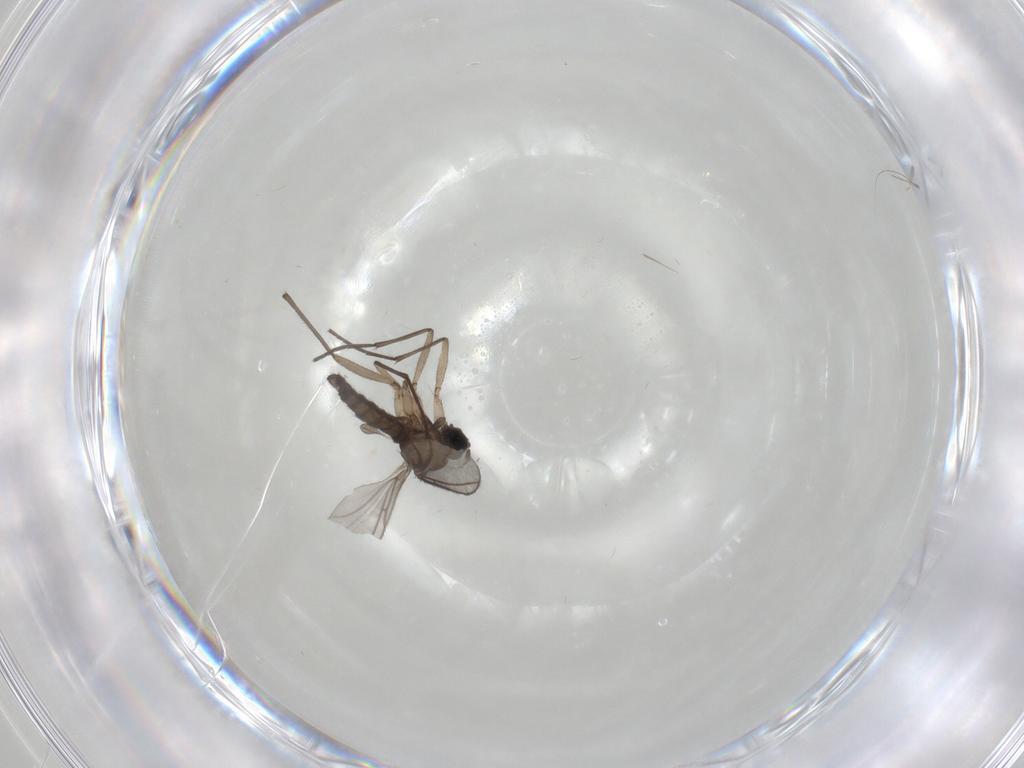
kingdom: Animalia
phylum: Arthropoda
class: Insecta
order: Diptera
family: Sciaridae
